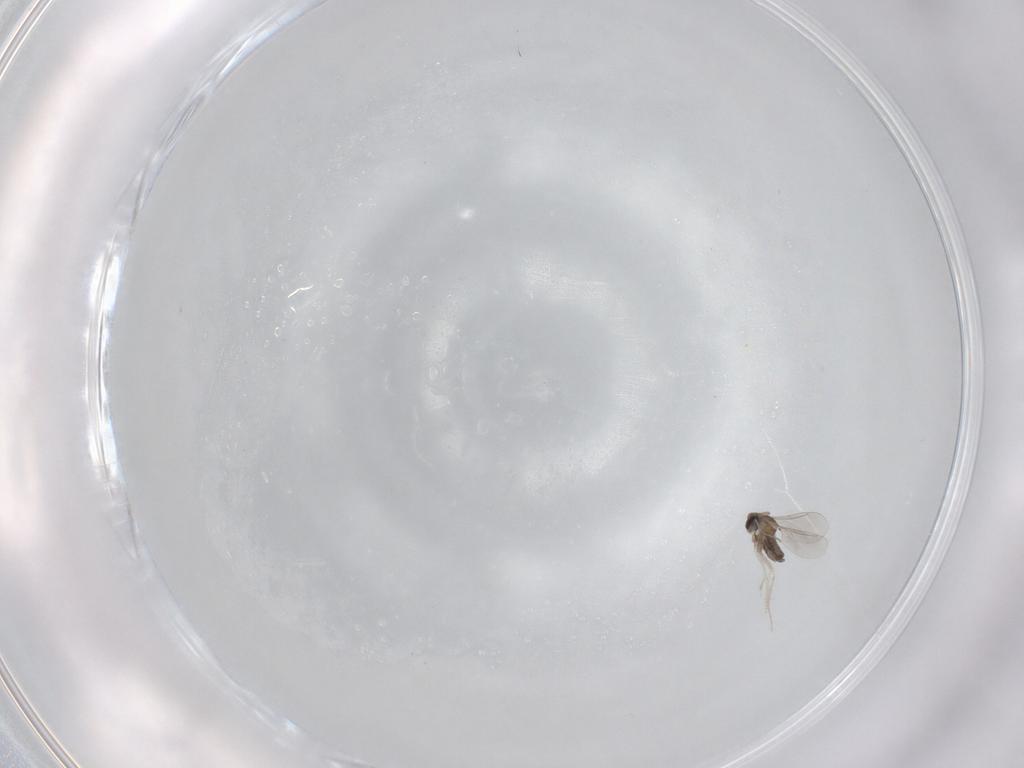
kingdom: Animalia
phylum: Arthropoda
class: Insecta
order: Diptera
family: Cecidomyiidae
